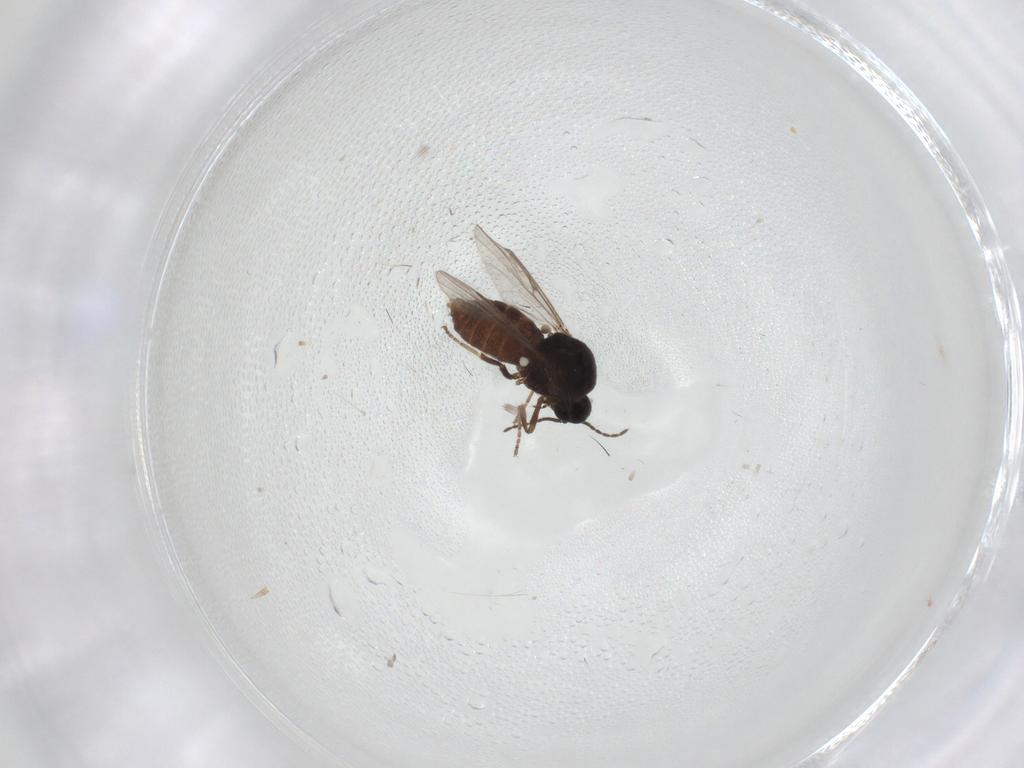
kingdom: Animalia
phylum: Arthropoda
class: Insecta
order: Diptera
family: Ceratopogonidae
